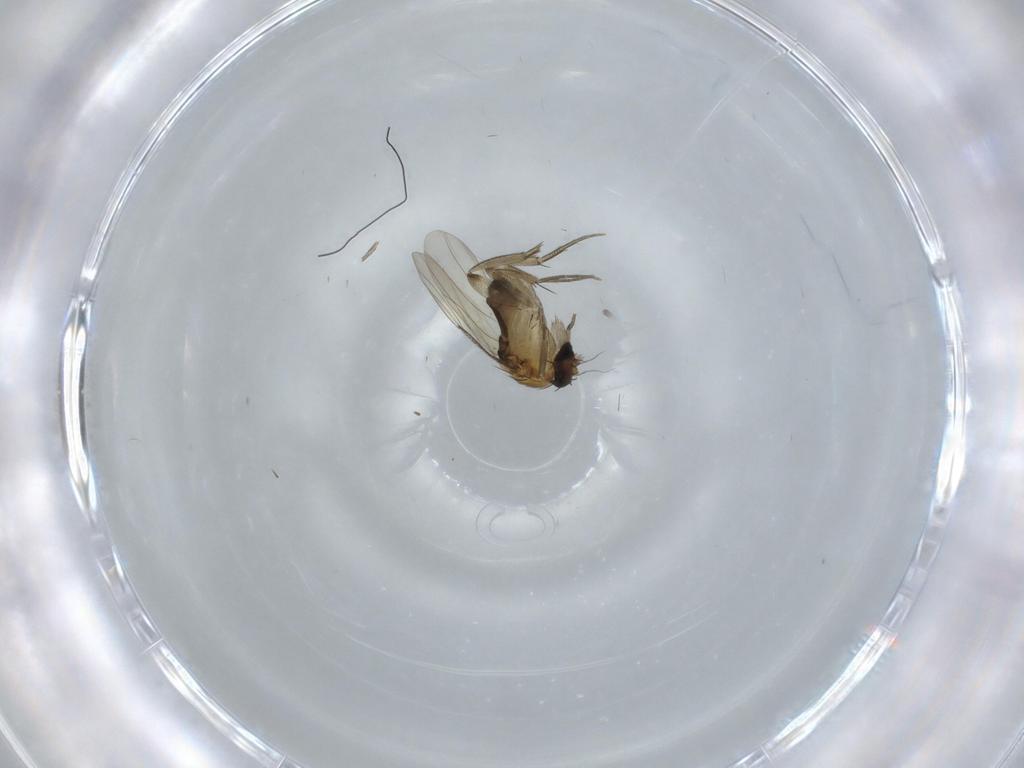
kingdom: Animalia
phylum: Arthropoda
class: Insecta
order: Diptera
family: Phoridae
